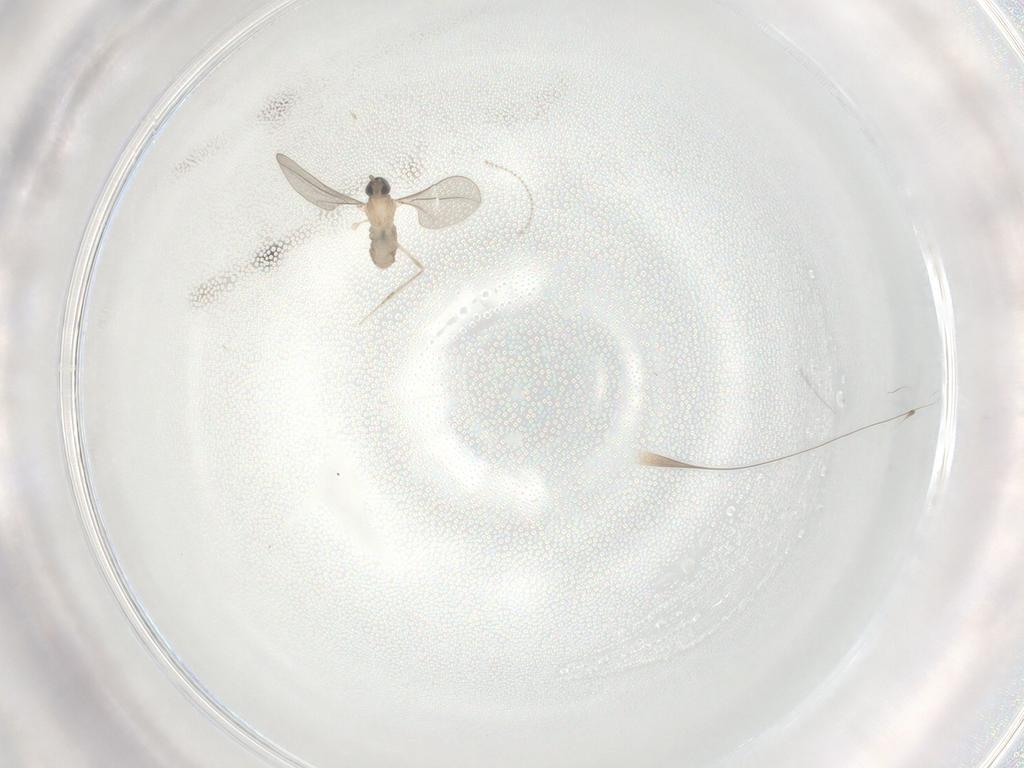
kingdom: Animalia
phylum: Arthropoda
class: Insecta
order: Diptera
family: Cecidomyiidae
